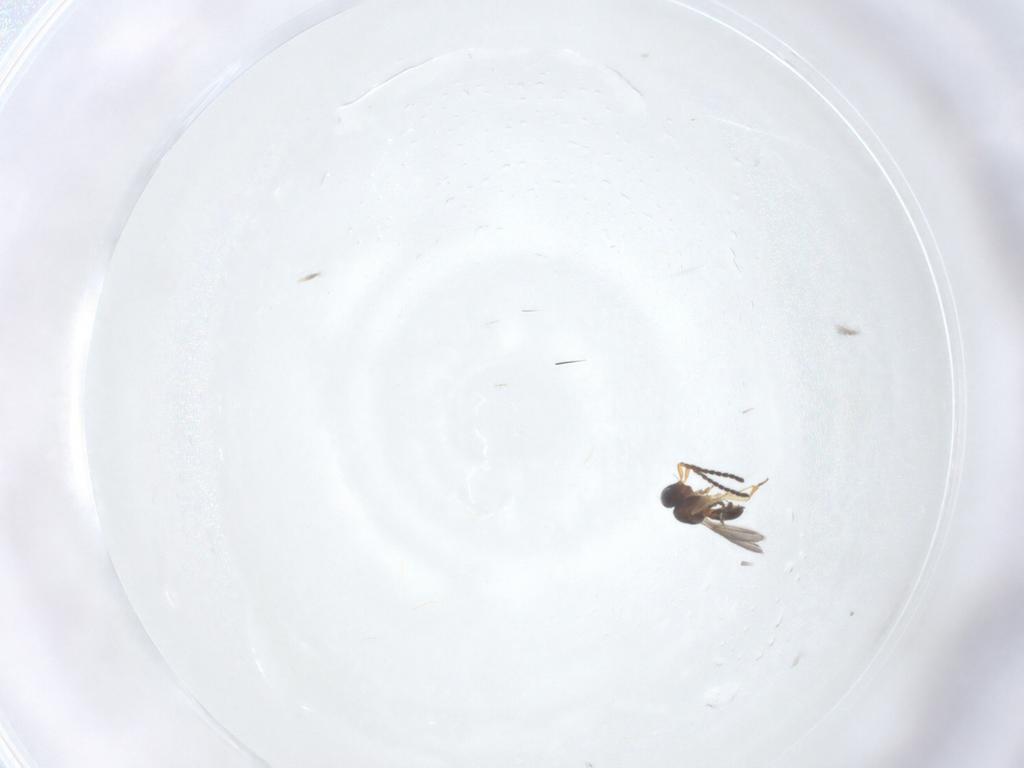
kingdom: Animalia
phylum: Arthropoda
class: Insecta
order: Hymenoptera
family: Scelionidae
